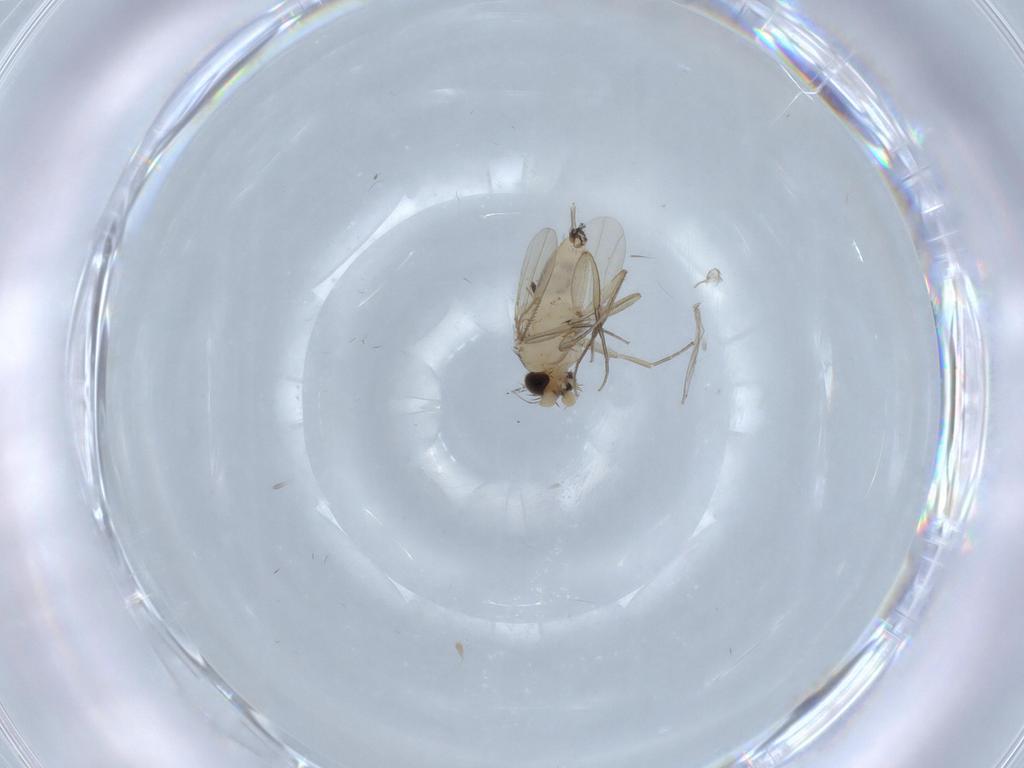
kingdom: Animalia
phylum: Arthropoda
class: Insecta
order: Diptera
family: Phoridae
